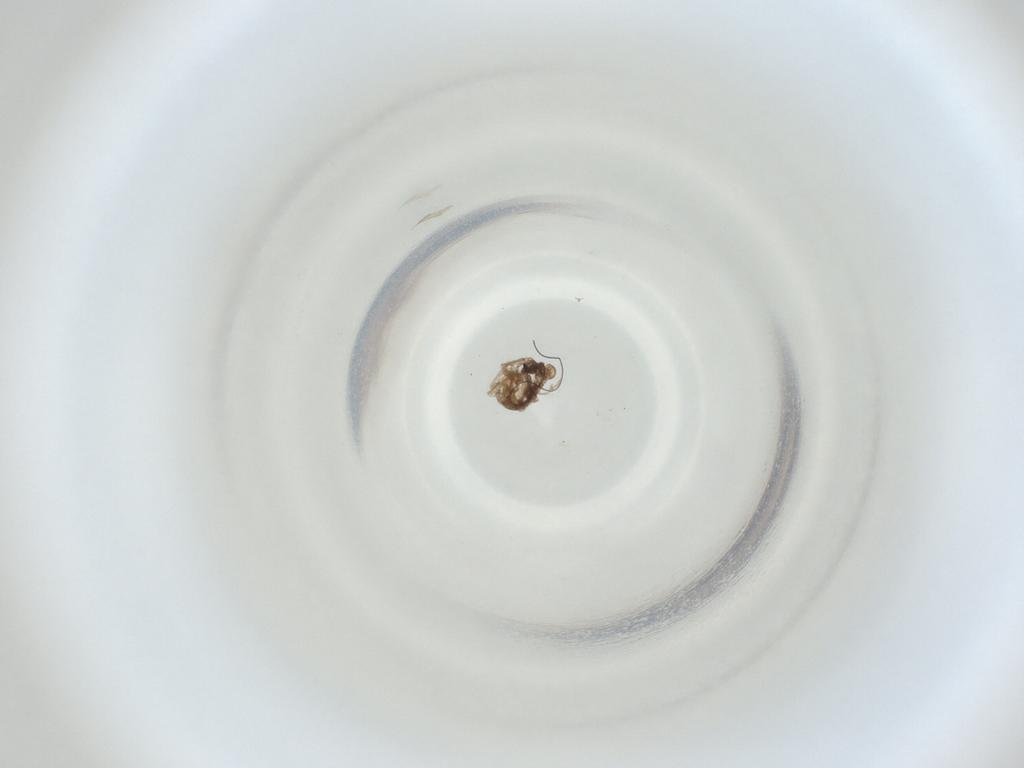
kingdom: Animalia
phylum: Arthropoda
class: Insecta
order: Diptera
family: Cecidomyiidae
